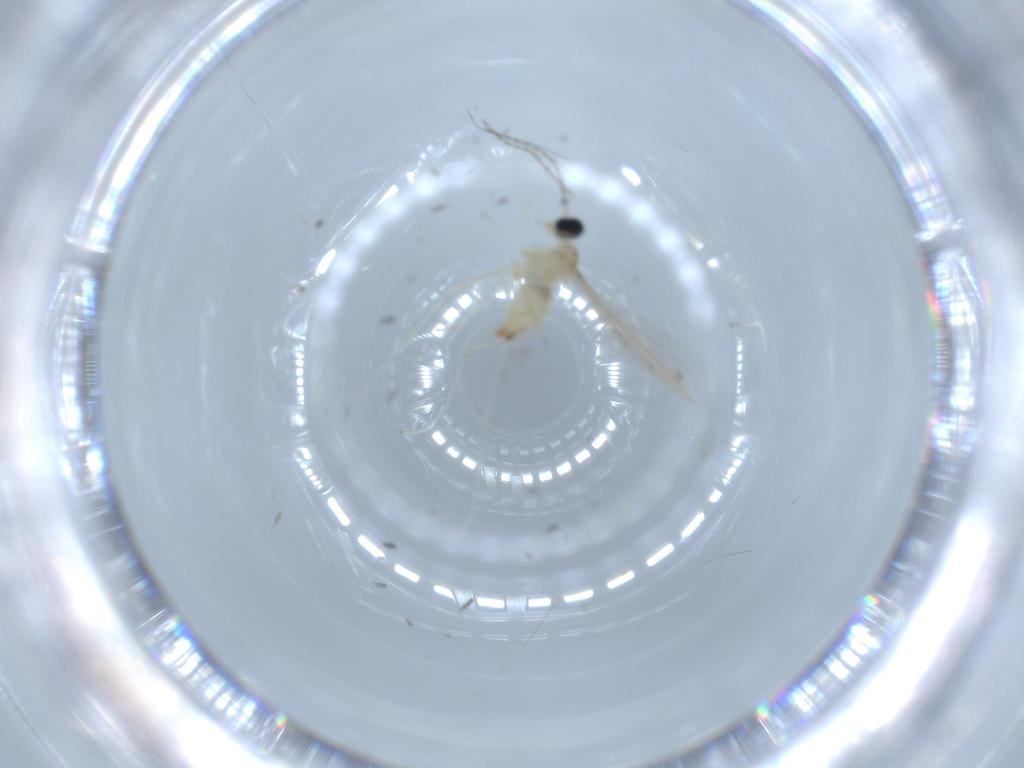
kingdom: Animalia
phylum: Arthropoda
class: Insecta
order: Diptera
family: Cecidomyiidae
